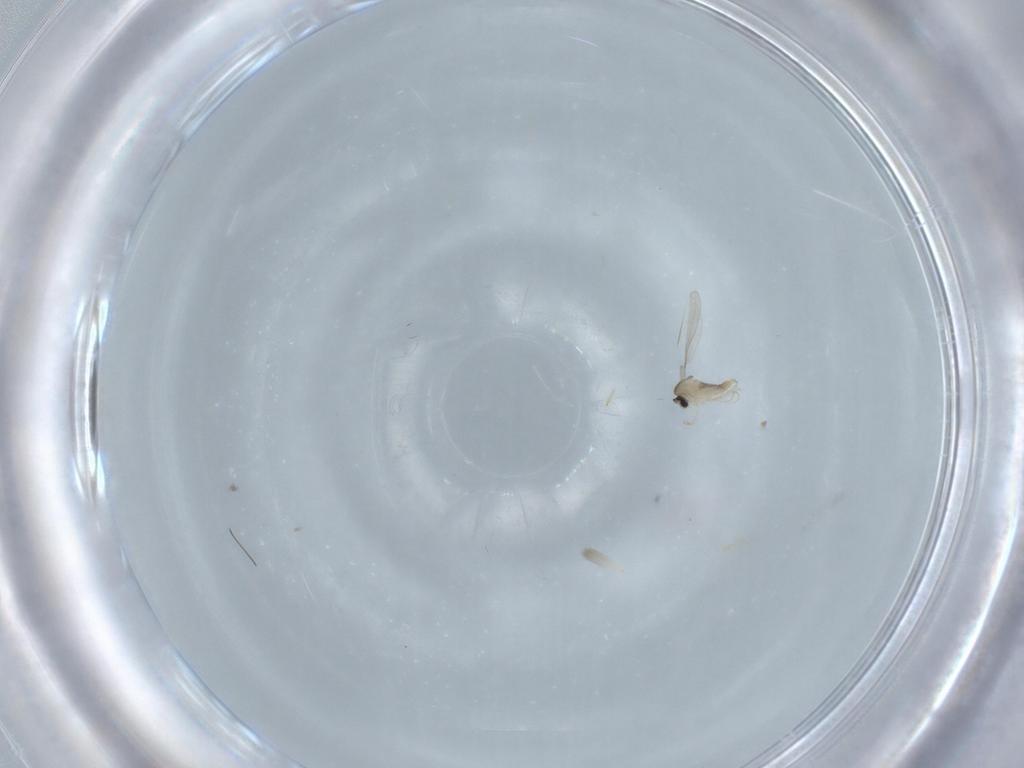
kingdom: Animalia
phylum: Arthropoda
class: Insecta
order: Diptera
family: Cecidomyiidae
